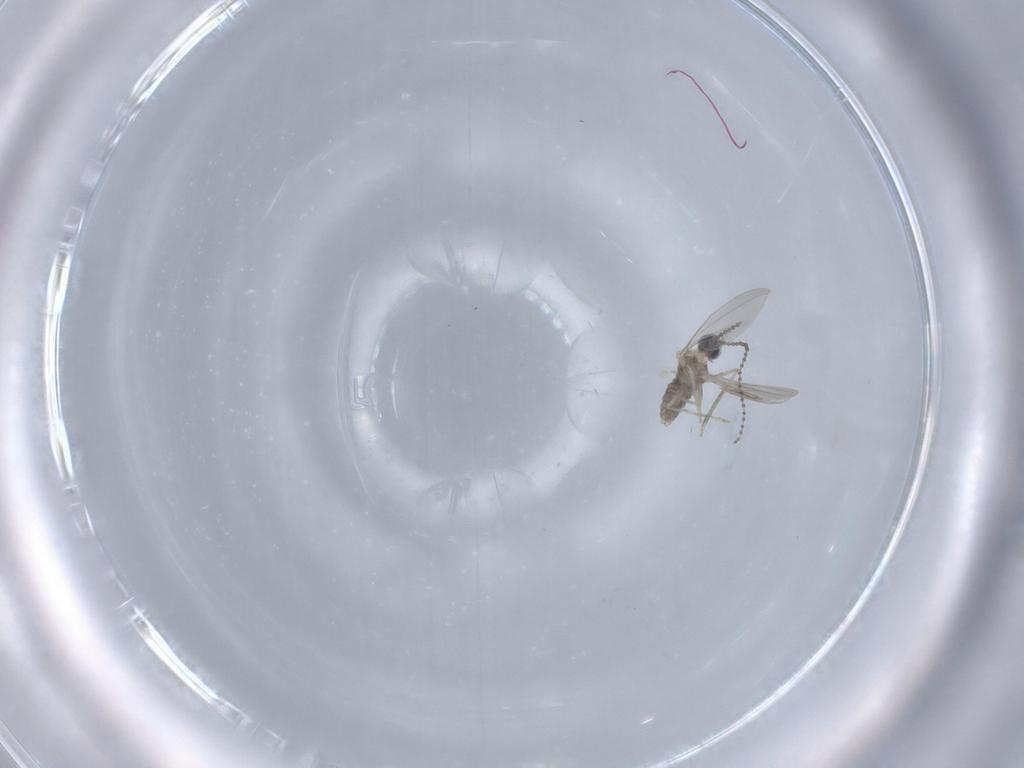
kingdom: Animalia
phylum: Arthropoda
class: Insecta
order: Diptera
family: Cecidomyiidae
